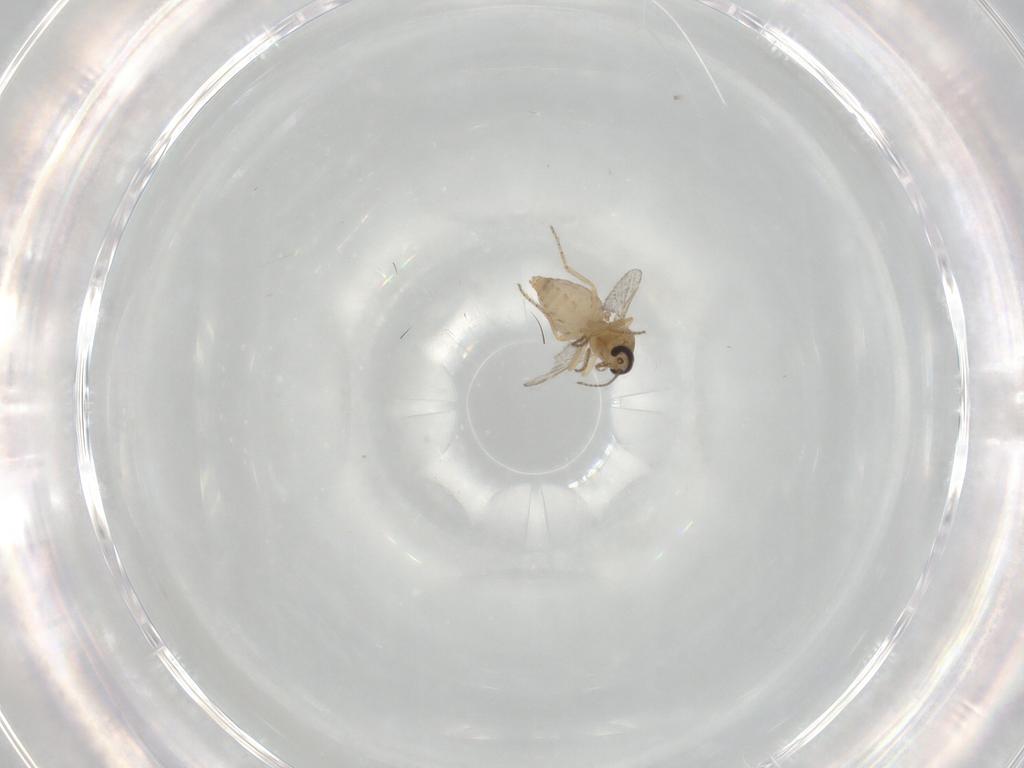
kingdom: Animalia
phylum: Arthropoda
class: Insecta
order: Diptera
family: Ceratopogonidae
